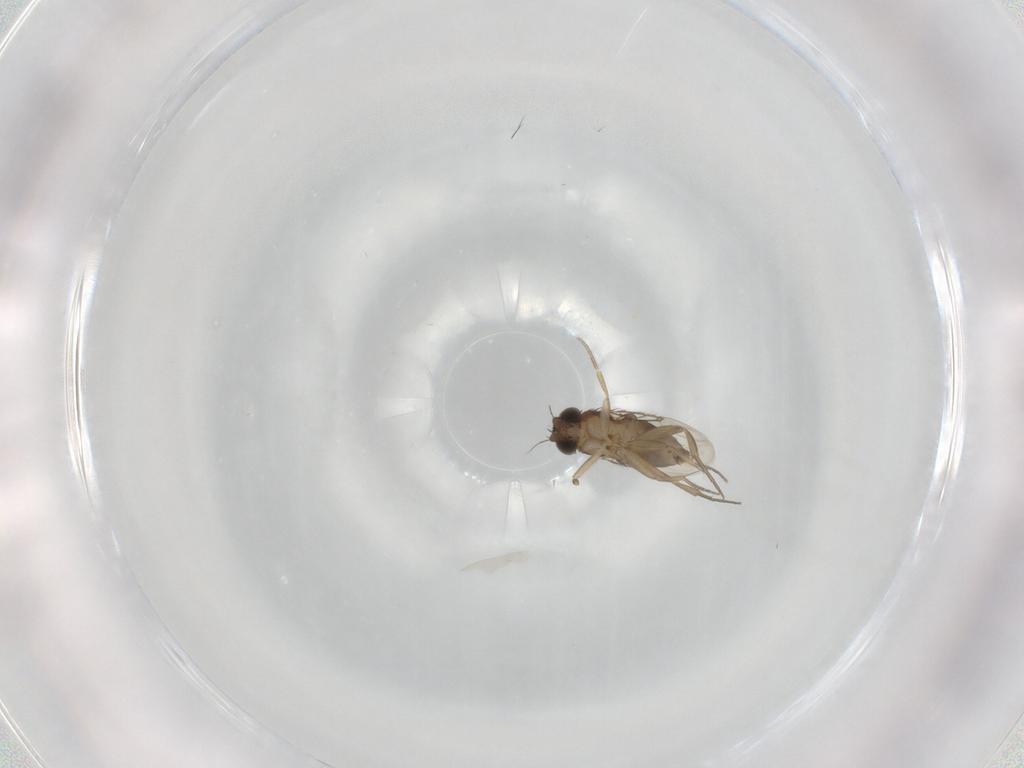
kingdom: Animalia
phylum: Arthropoda
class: Insecta
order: Diptera
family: Phoridae
